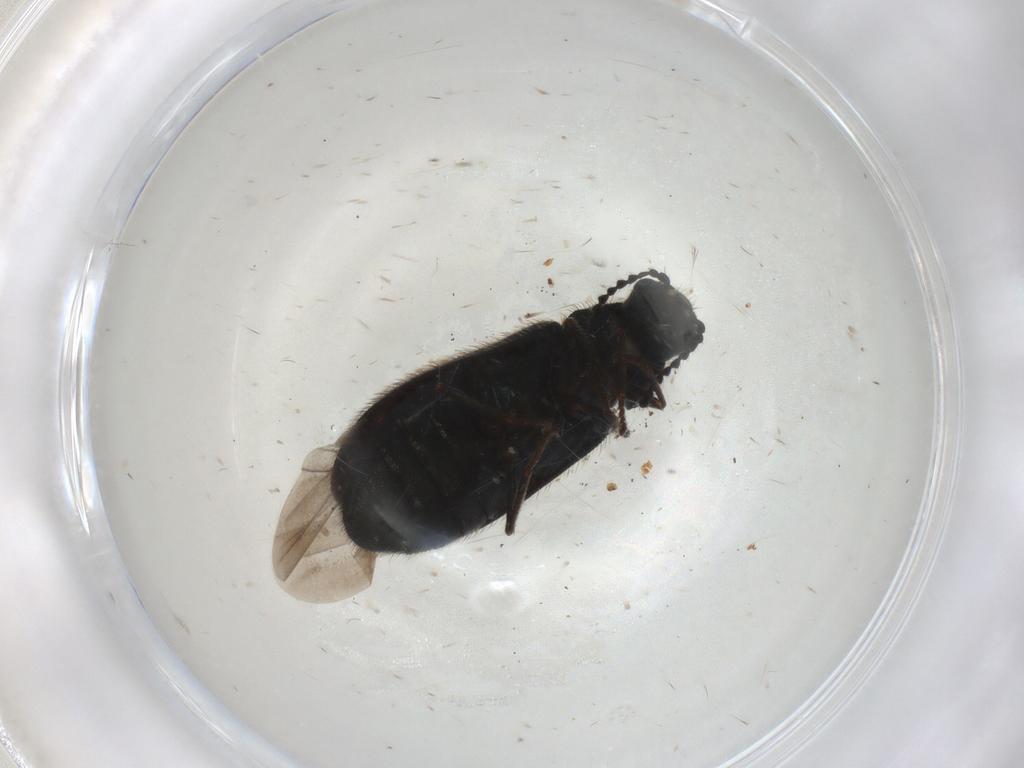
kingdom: Animalia
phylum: Arthropoda
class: Insecta
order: Coleoptera
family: Melyridae
